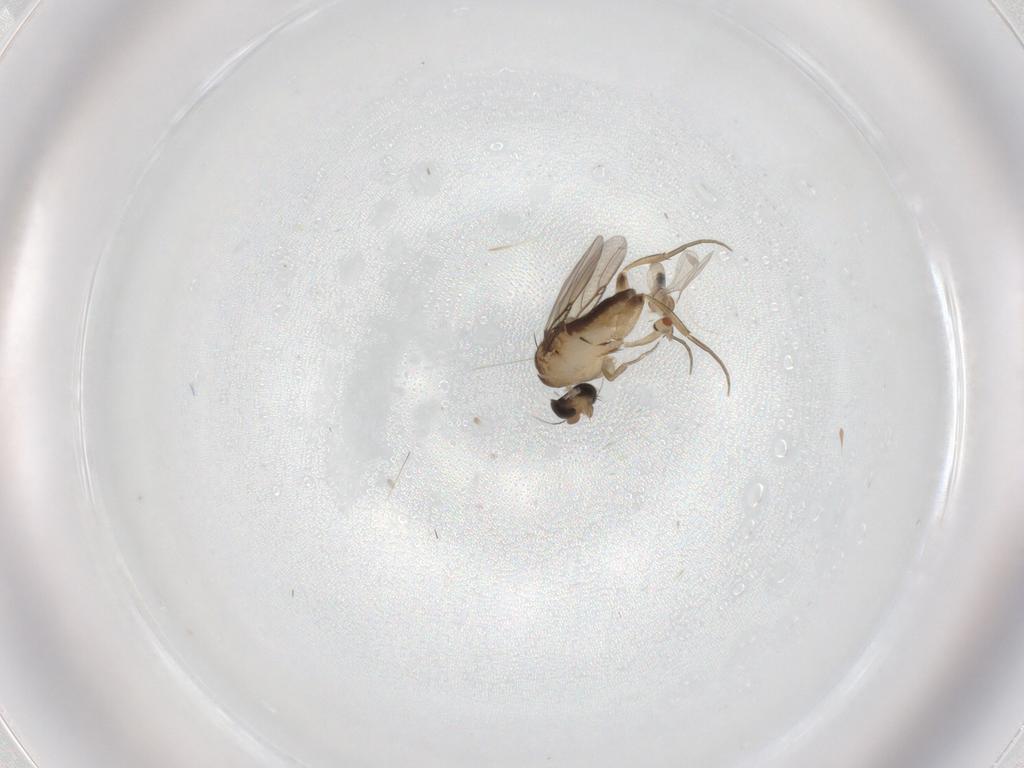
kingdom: Animalia
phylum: Arthropoda
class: Insecta
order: Diptera
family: Cecidomyiidae
